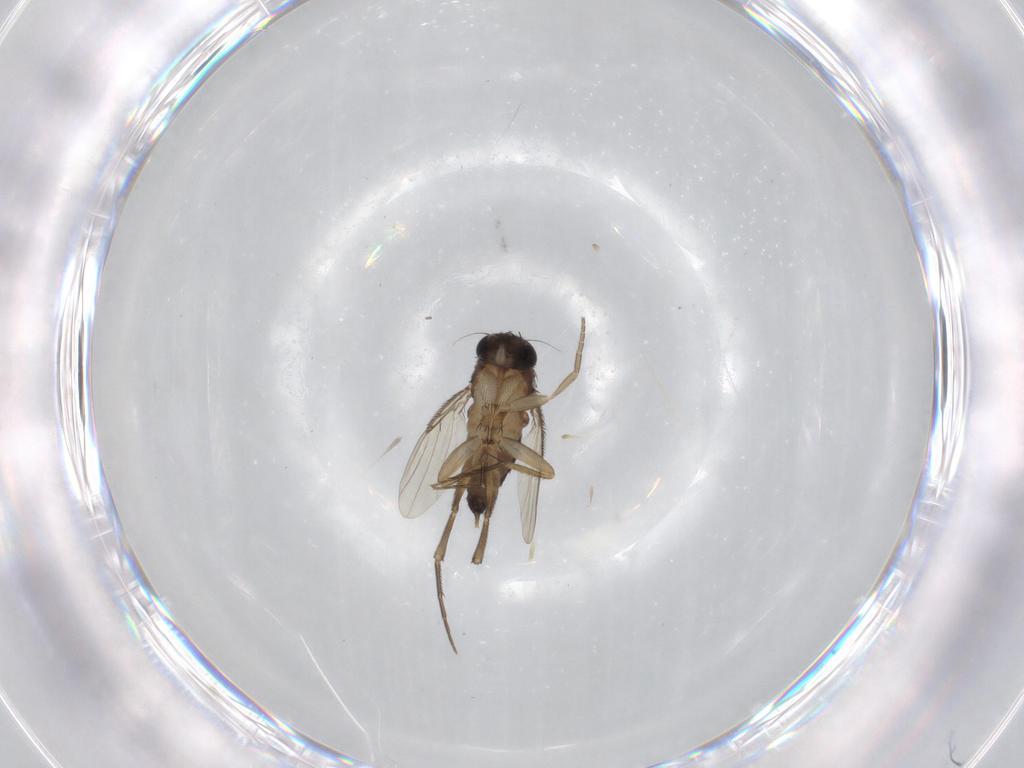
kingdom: Animalia
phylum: Arthropoda
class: Insecta
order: Diptera
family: Phoridae
